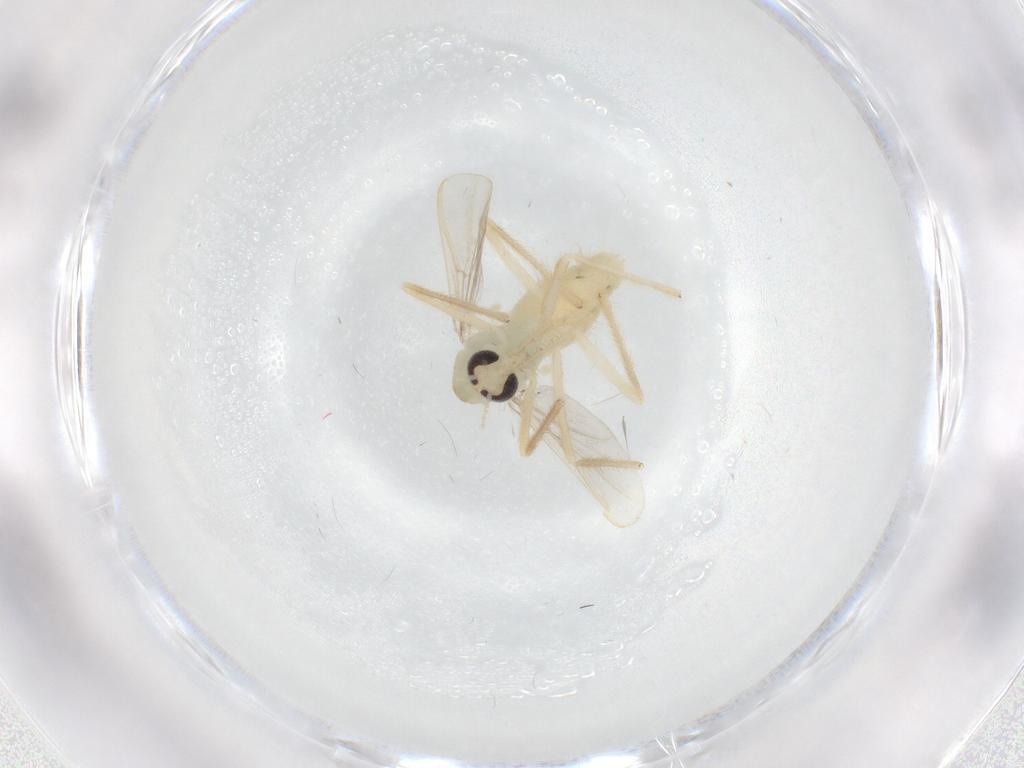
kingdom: Animalia
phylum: Arthropoda
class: Insecta
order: Diptera
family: Chironomidae
